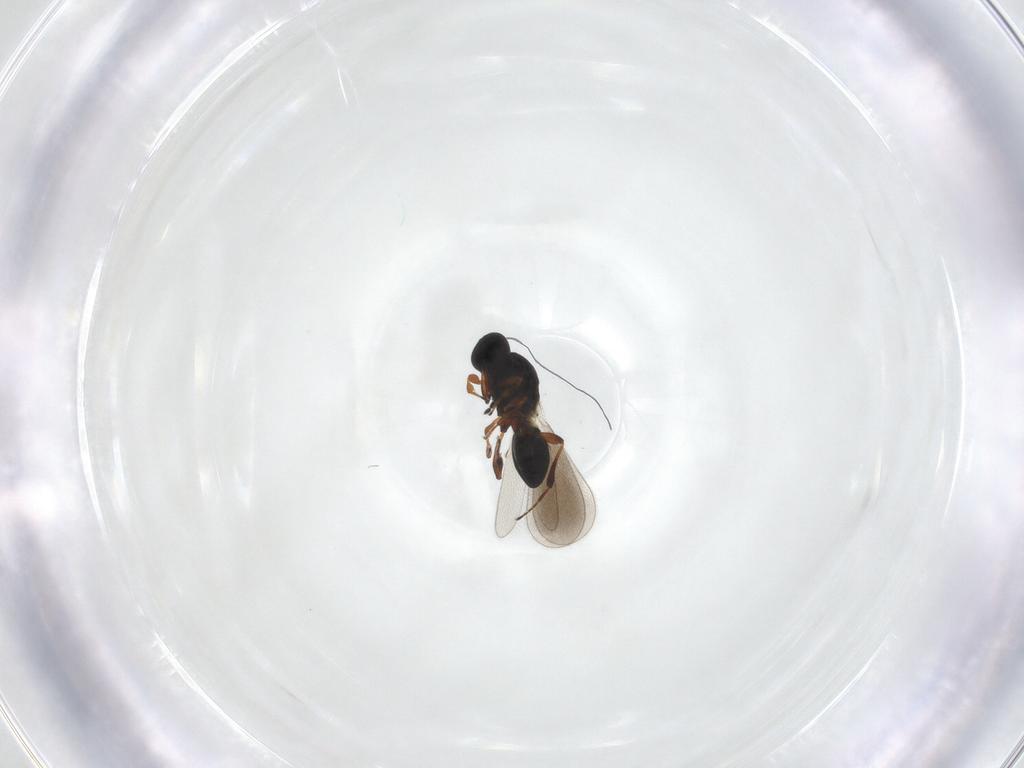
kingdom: Animalia
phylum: Arthropoda
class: Insecta
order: Hymenoptera
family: Platygastridae
